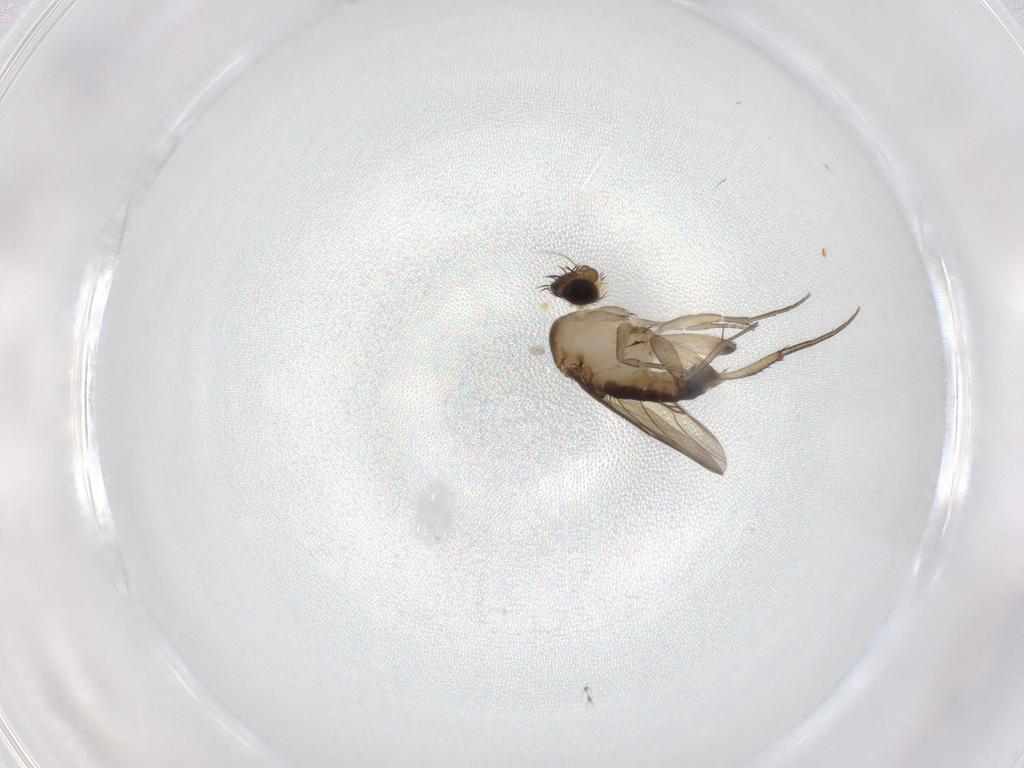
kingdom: Animalia
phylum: Arthropoda
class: Insecta
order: Diptera
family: Phoridae
